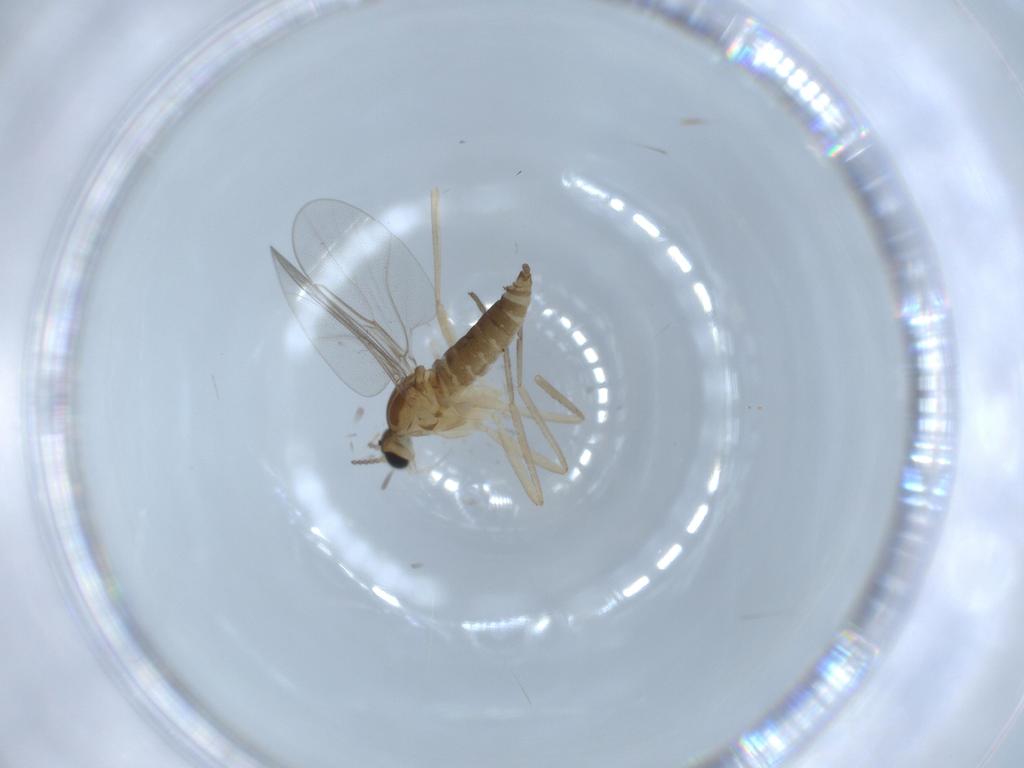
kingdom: Animalia
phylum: Arthropoda
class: Insecta
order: Diptera
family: Cecidomyiidae
